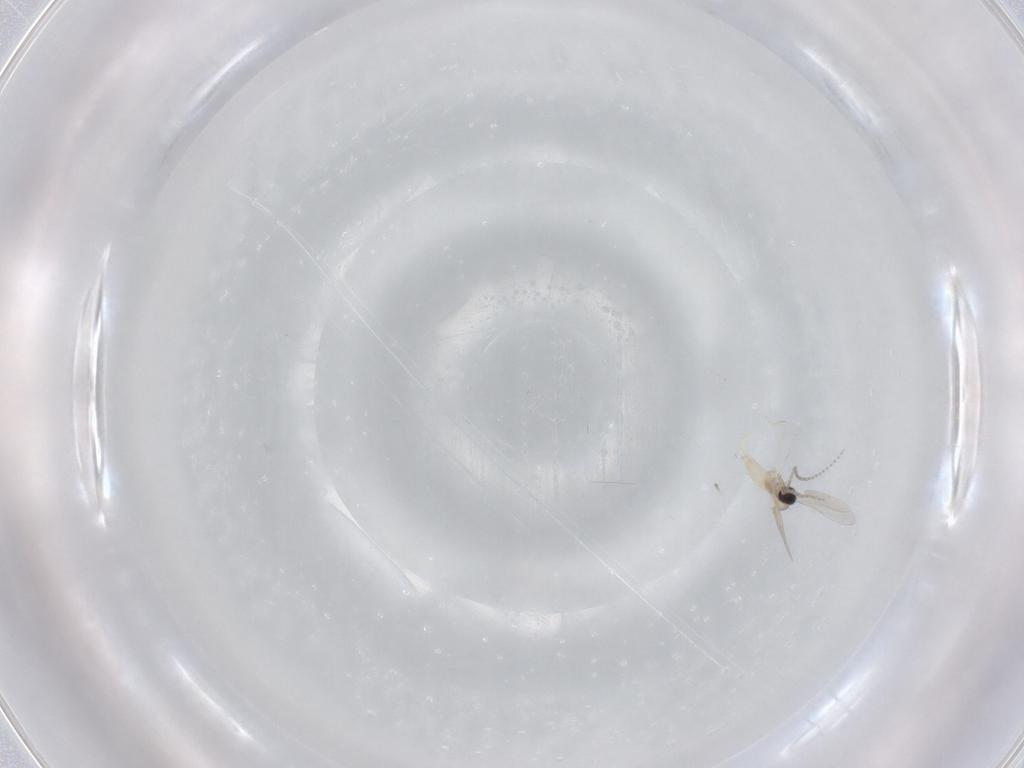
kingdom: Animalia
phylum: Arthropoda
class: Insecta
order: Diptera
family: Cecidomyiidae
